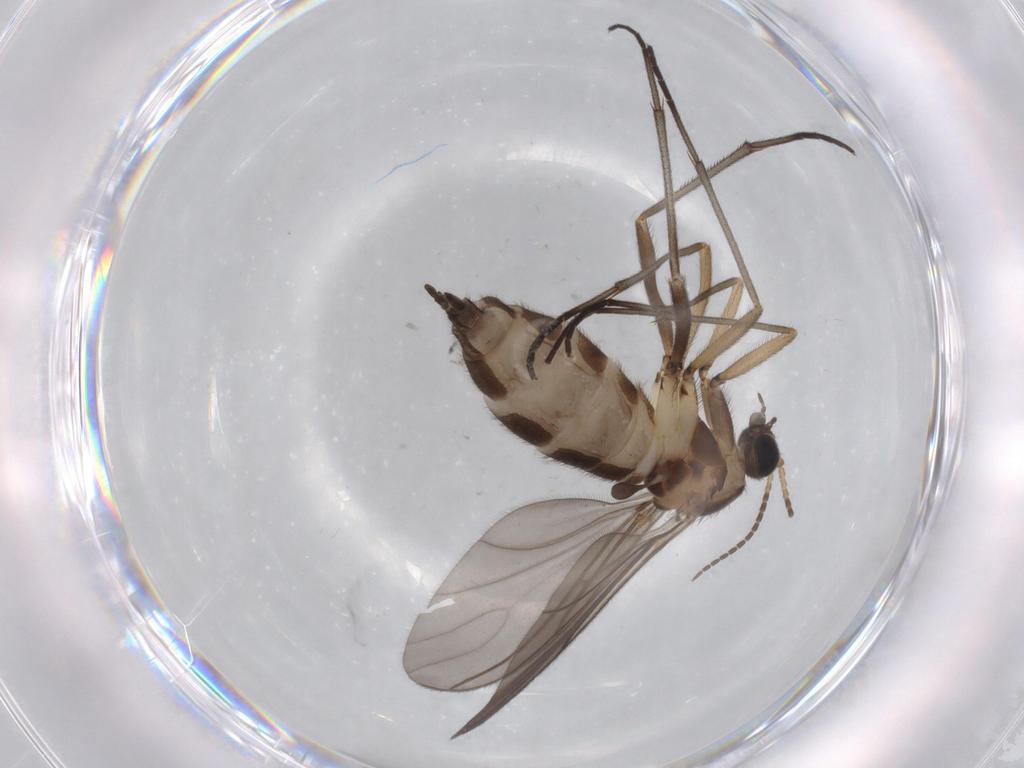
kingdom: Animalia
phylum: Arthropoda
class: Insecta
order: Diptera
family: Sciaridae
